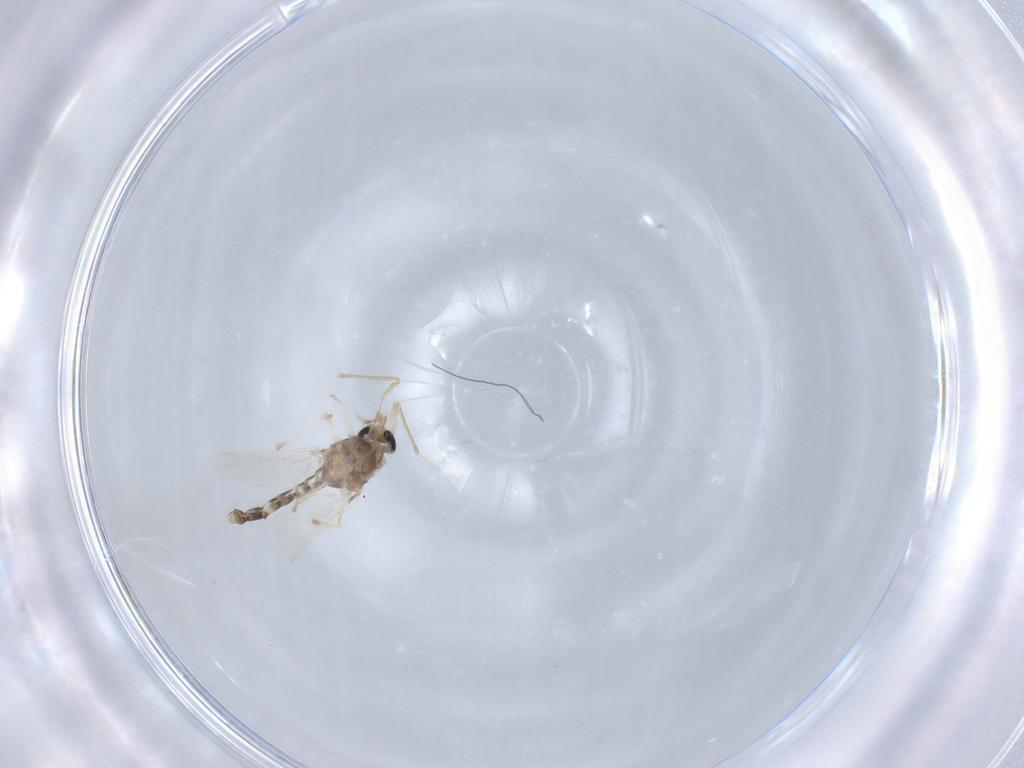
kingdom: Animalia
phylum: Arthropoda
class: Insecta
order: Diptera
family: Chironomidae
